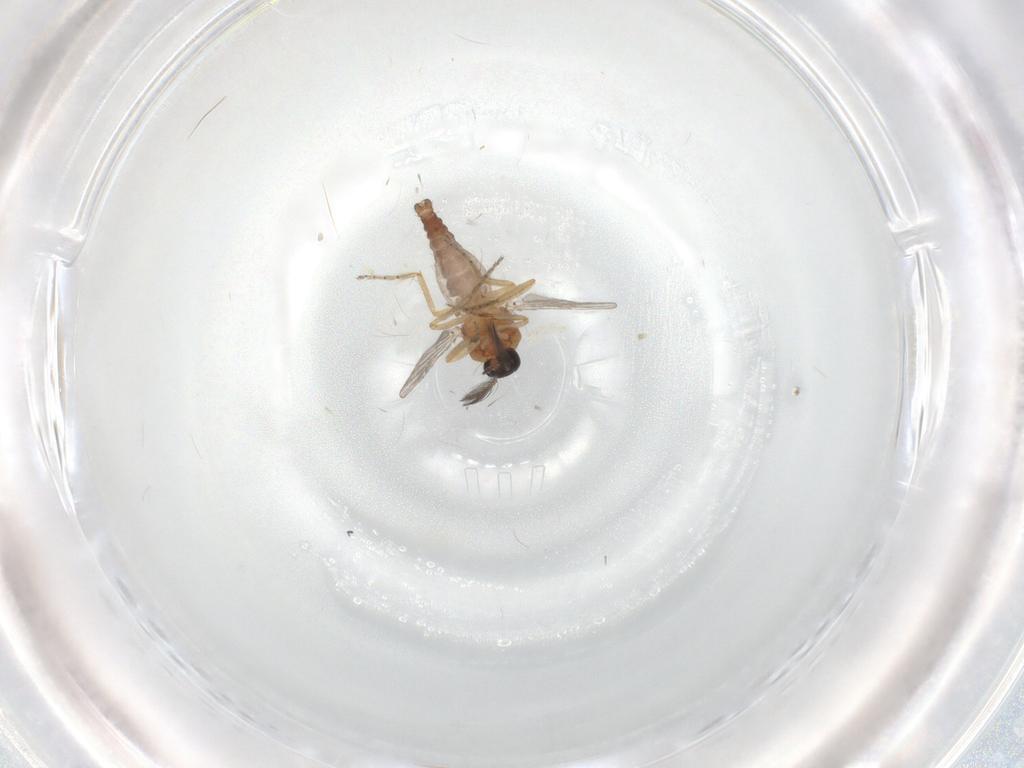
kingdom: Animalia
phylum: Arthropoda
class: Insecta
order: Diptera
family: Ceratopogonidae
